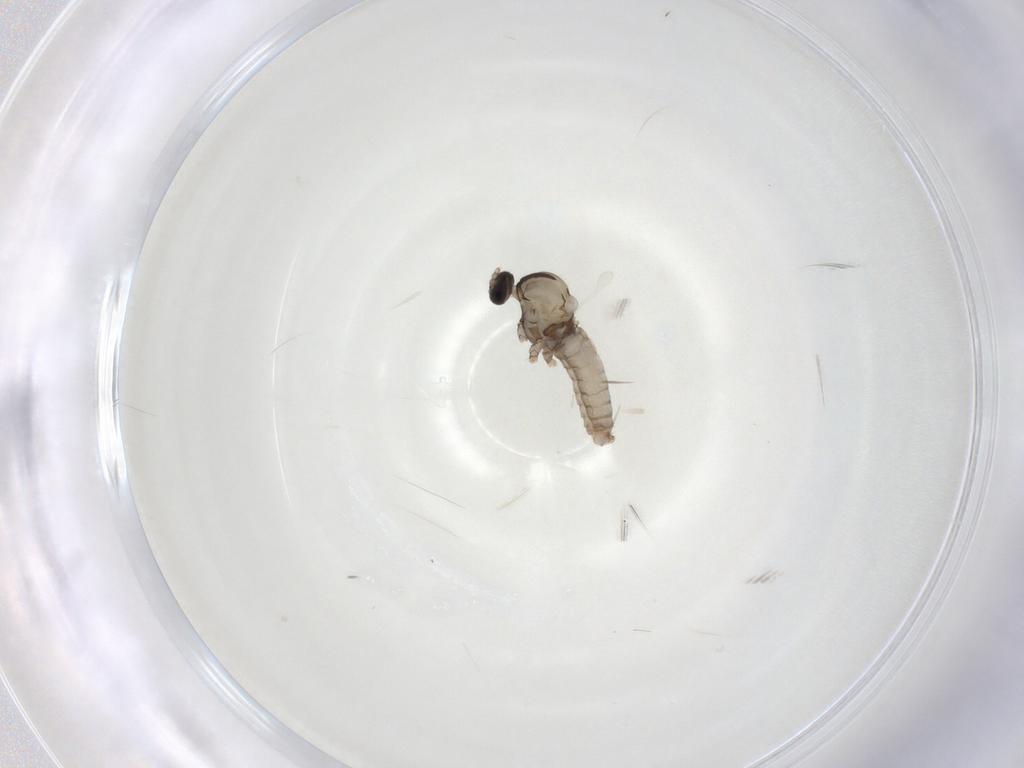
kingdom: Animalia
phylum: Arthropoda
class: Insecta
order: Diptera
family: Cecidomyiidae
